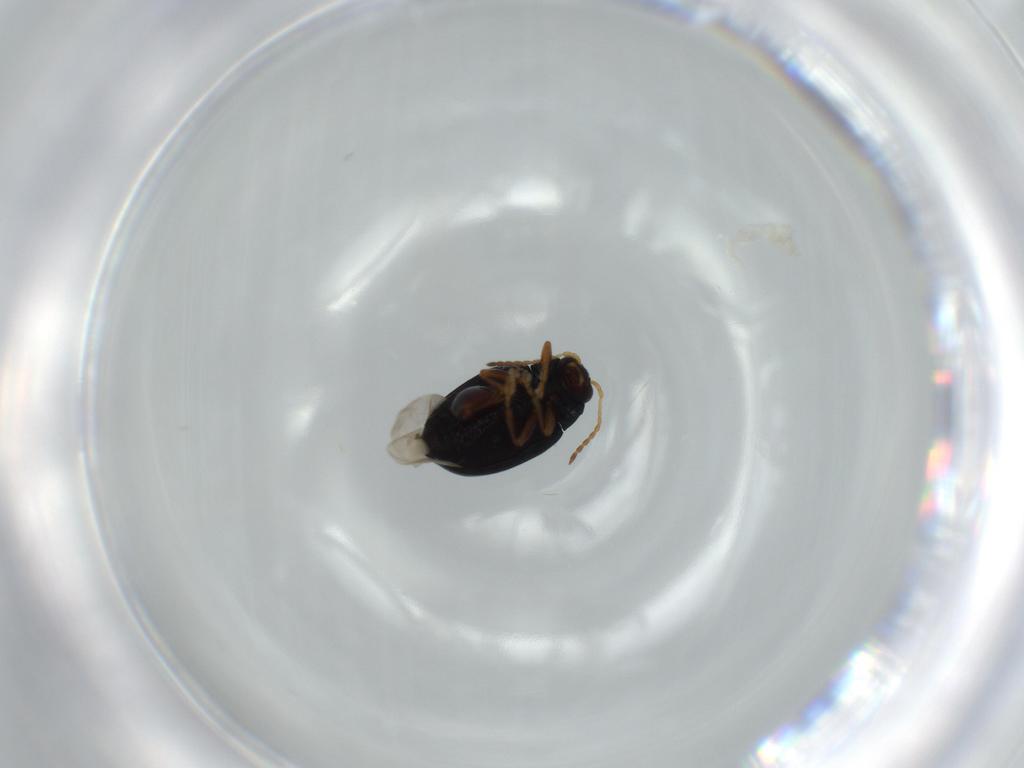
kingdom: Animalia
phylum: Arthropoda
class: Insecta
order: Coleoptera
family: Chrysomelidae
